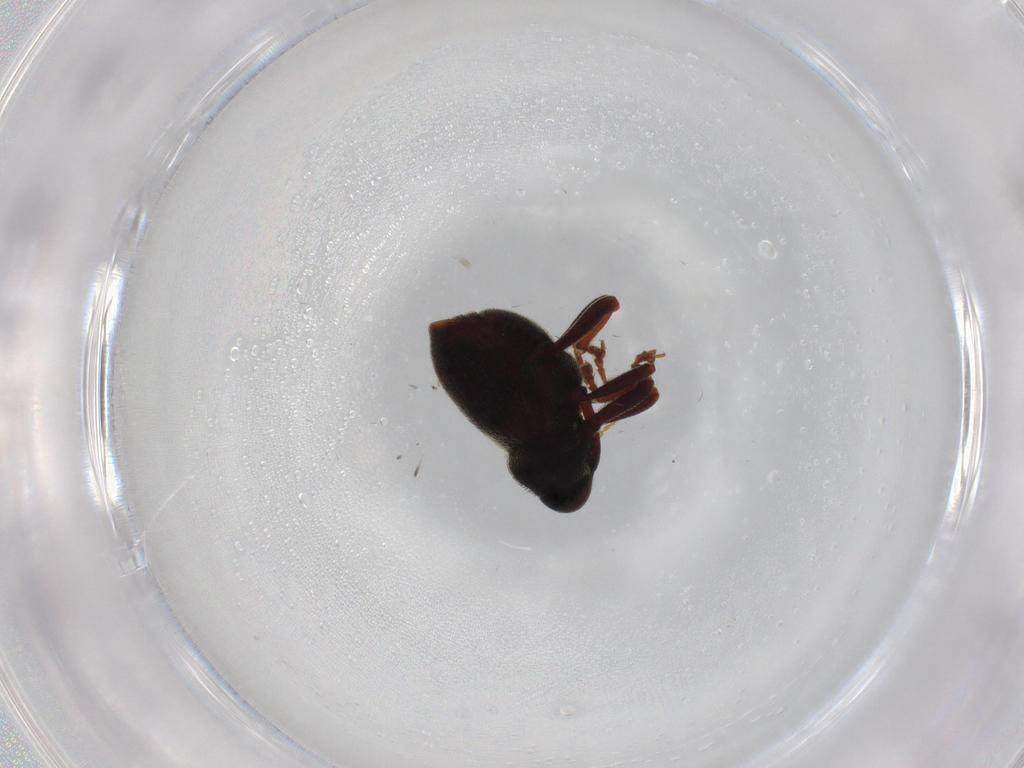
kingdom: Animalia
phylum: Arthropoda
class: Insecta
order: Coleoptera
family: Curculionidae
